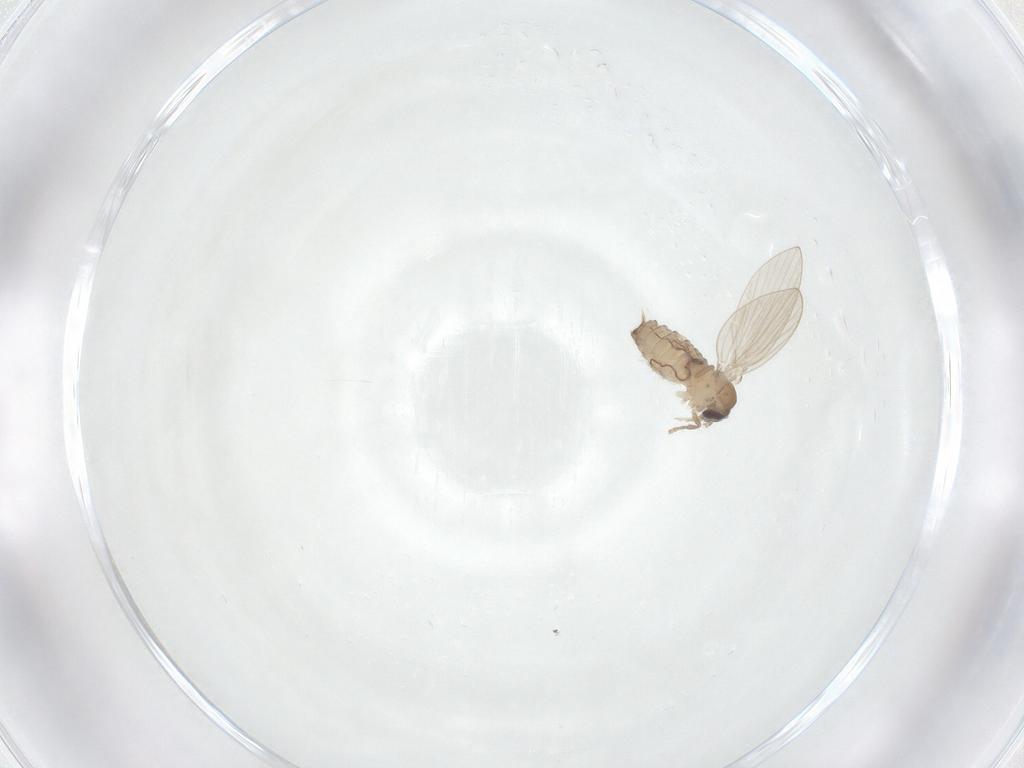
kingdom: Animalia
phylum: Arthropoda
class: Insecta
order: Diptera
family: Psychodidae
